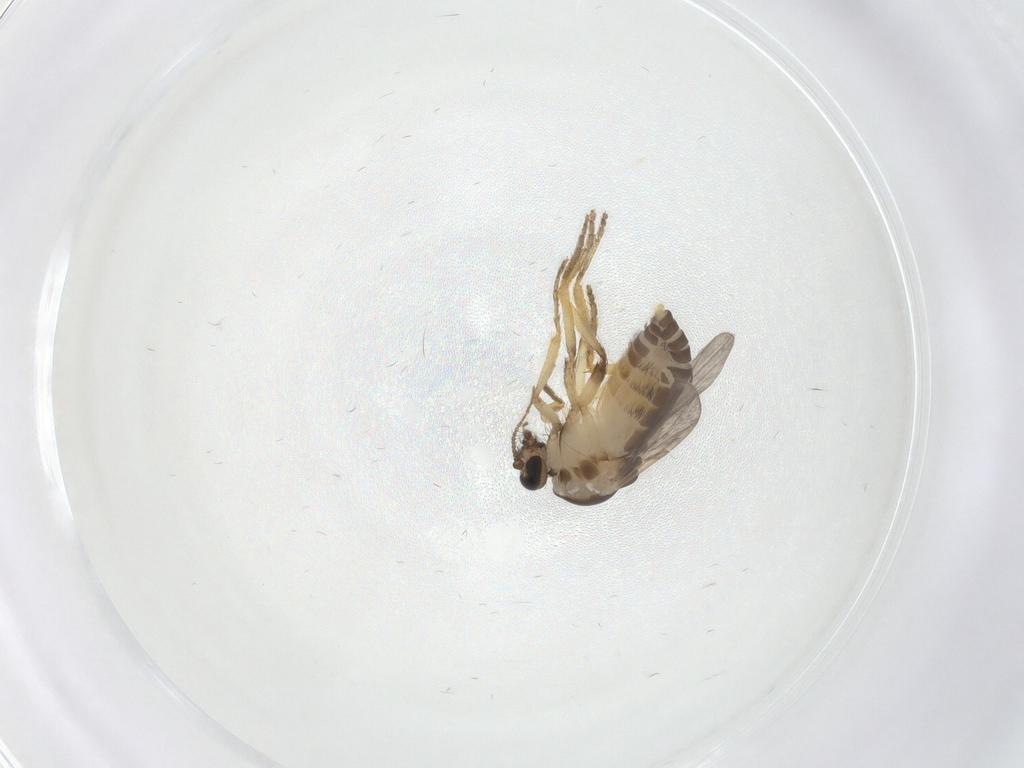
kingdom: Animalia
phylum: Arthropoda
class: Insecta
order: Diptera
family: Ceratopogonidae
